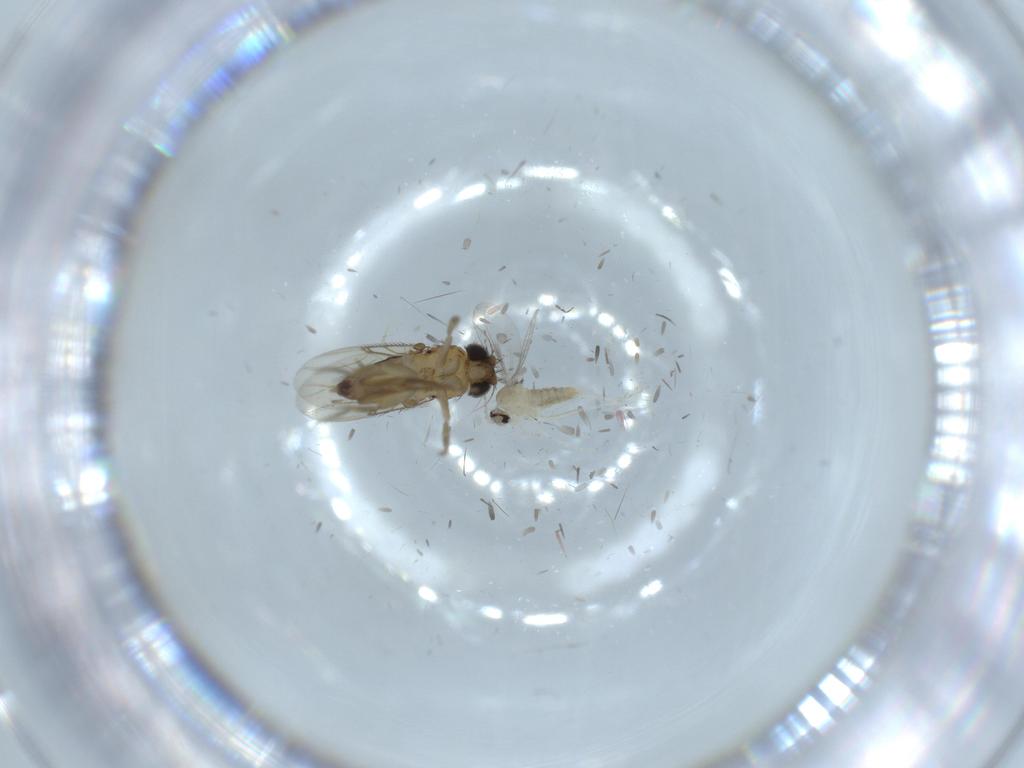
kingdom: Animalia
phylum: Arthropoda
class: Insecta
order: Diptera
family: Phoridae
